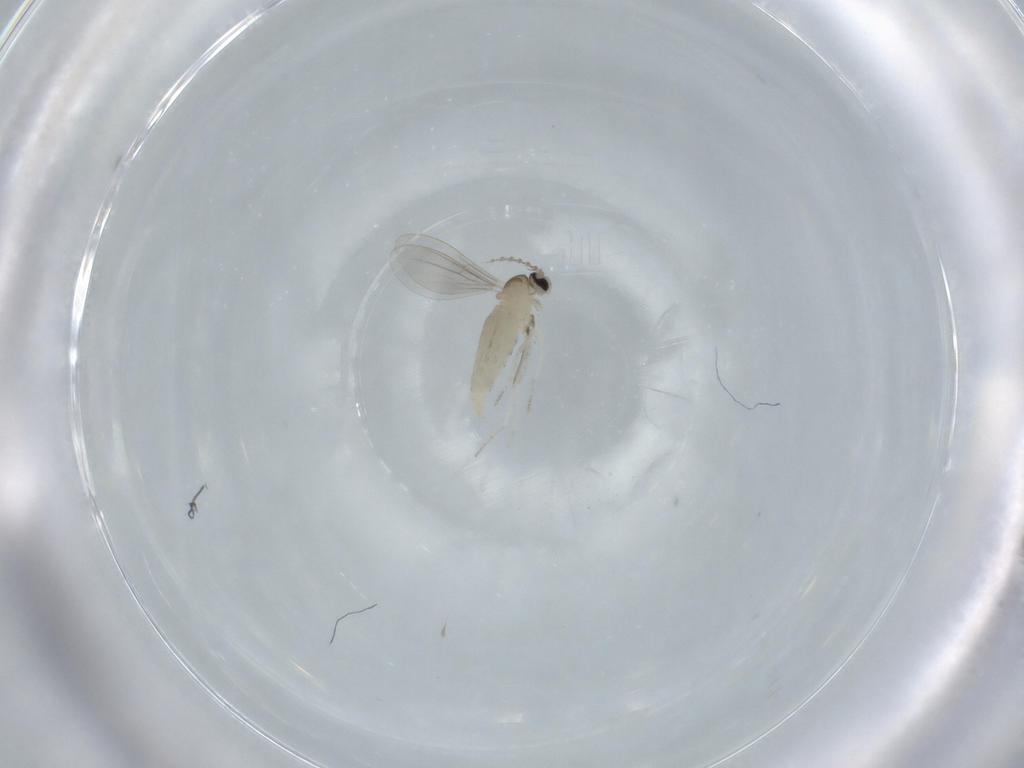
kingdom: Animalia
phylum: Arthropoda
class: Insecta
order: Diptera
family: Cecidomyiidae
